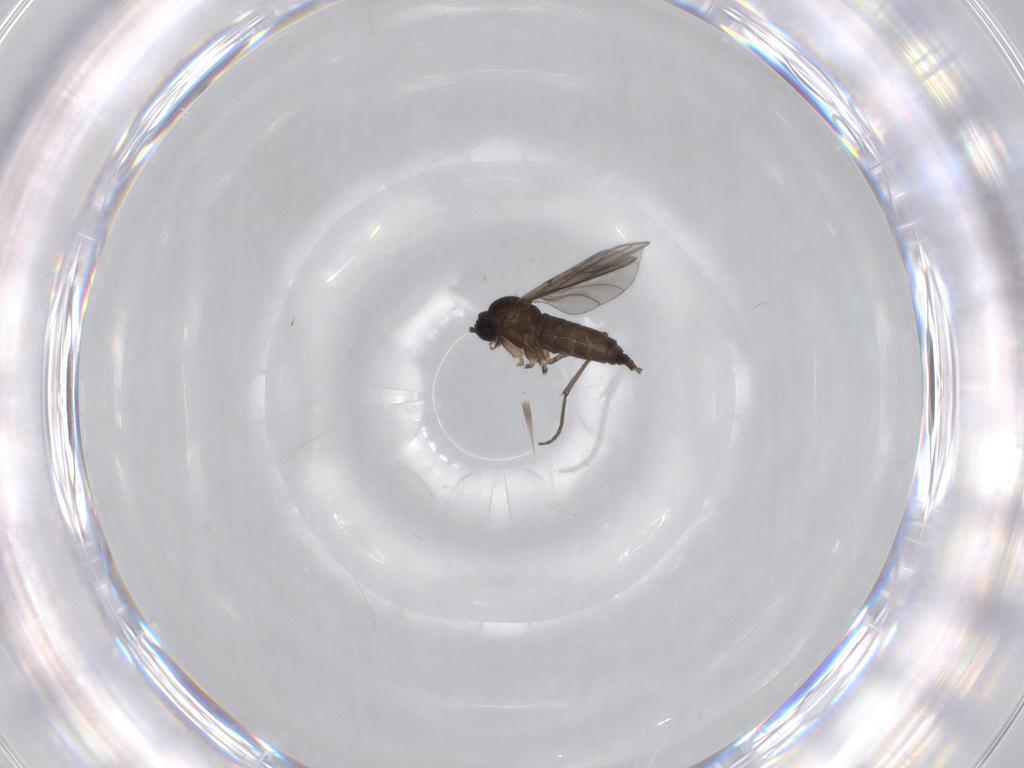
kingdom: Animalia
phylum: Arthropoda
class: Insecta
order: Diptera
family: Sciaridae
